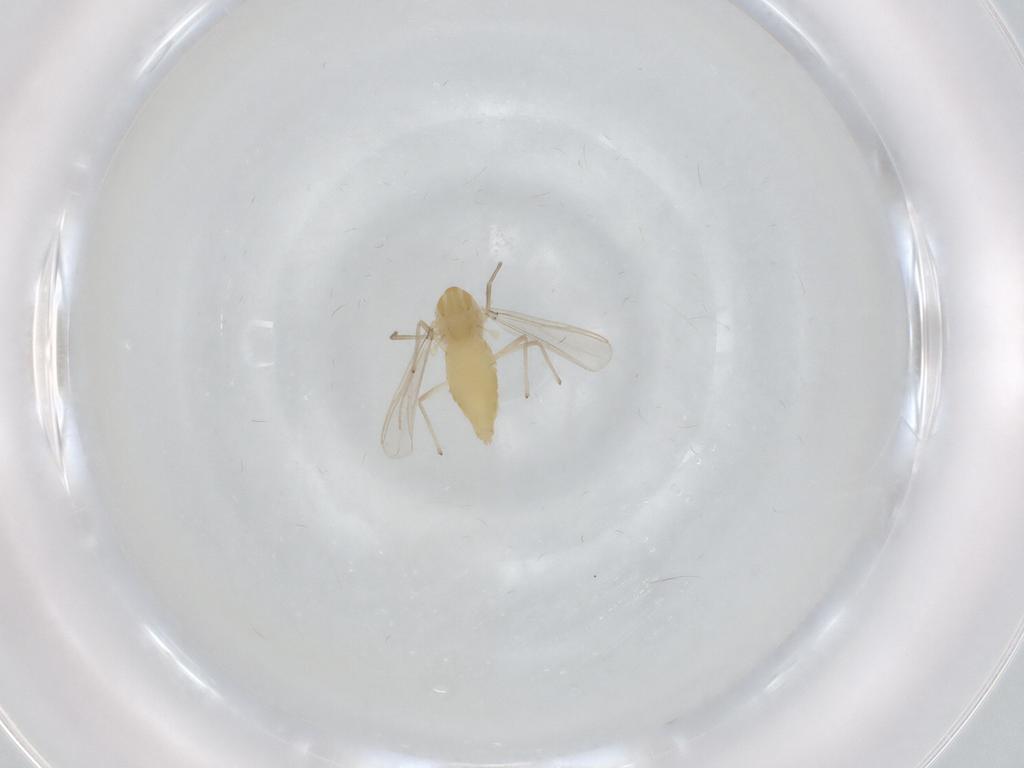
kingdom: Animalia
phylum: Arthropoda
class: Insecta
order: Diptera
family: Chironomidae
